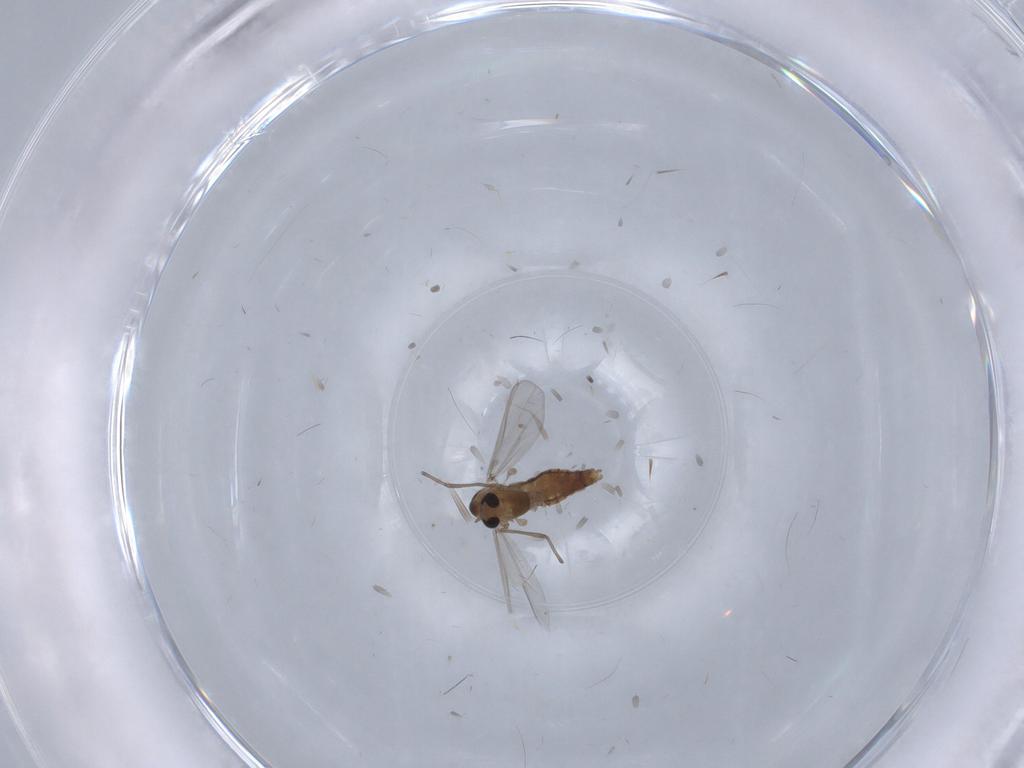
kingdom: Animalia
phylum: Arthropoda
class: Insecta
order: Diptera
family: Chironomidae
